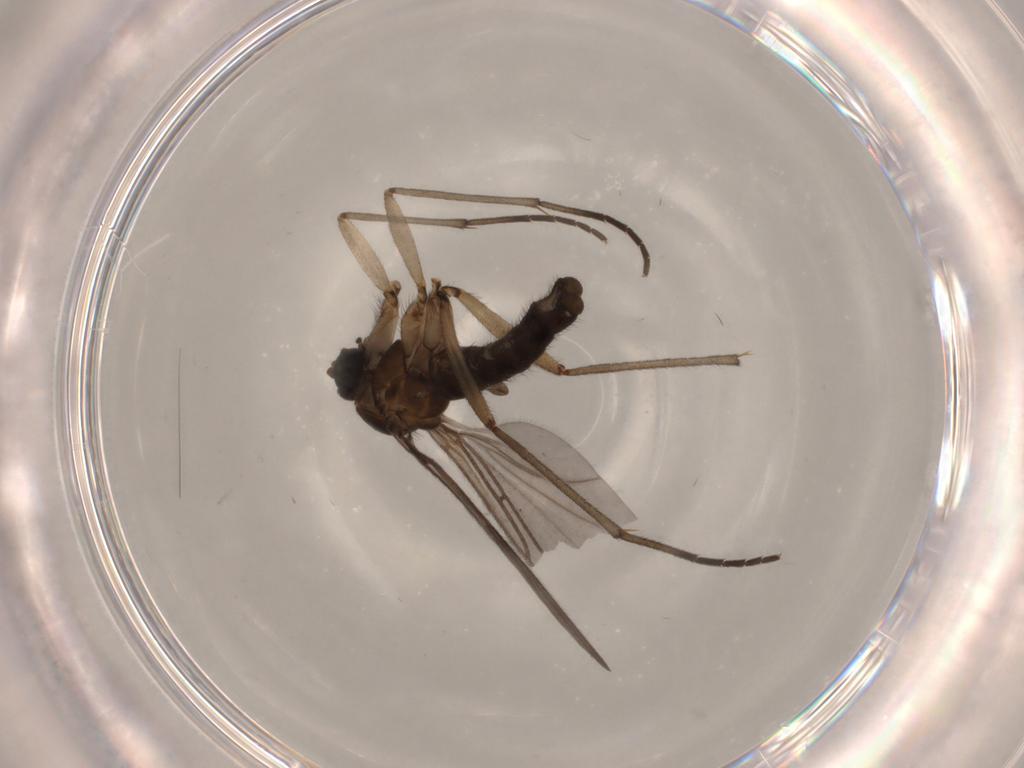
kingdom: Animalia
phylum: Arthropoda
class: Insecta
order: Diptera
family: Sciaridae
